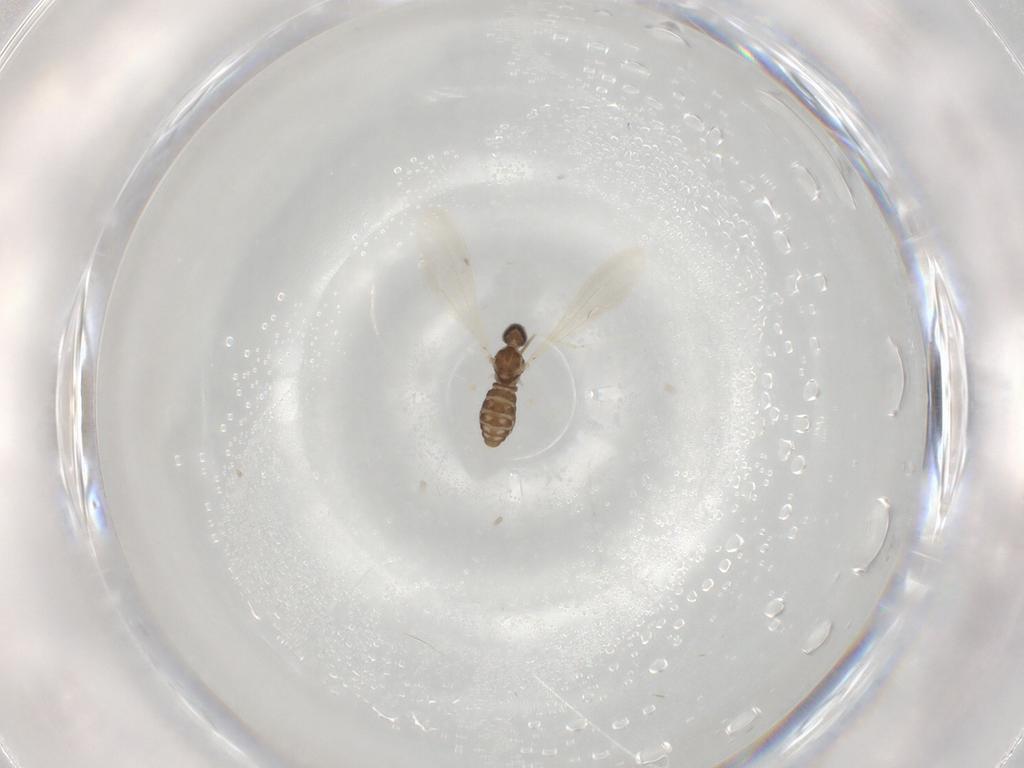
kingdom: Animalia
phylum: Arthropoda
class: Insecta
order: Diptera
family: Cecidomyiidae
